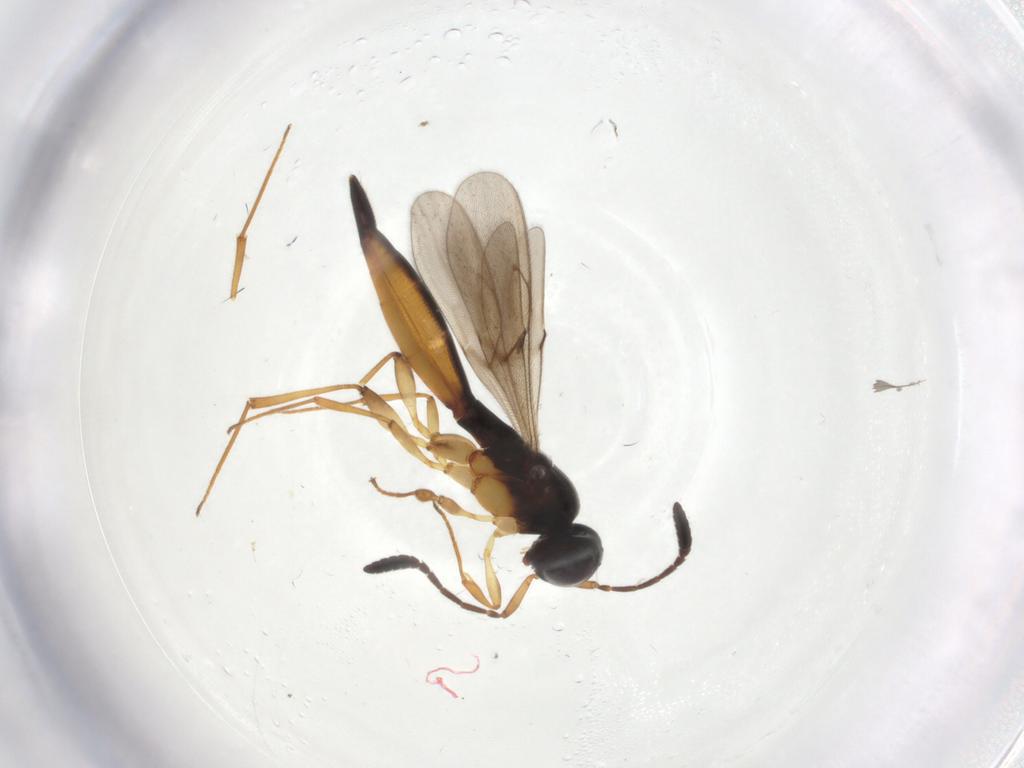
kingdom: Animalia
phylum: Arthropoda
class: Insecta
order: Hymenoptera
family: Scelionidae
